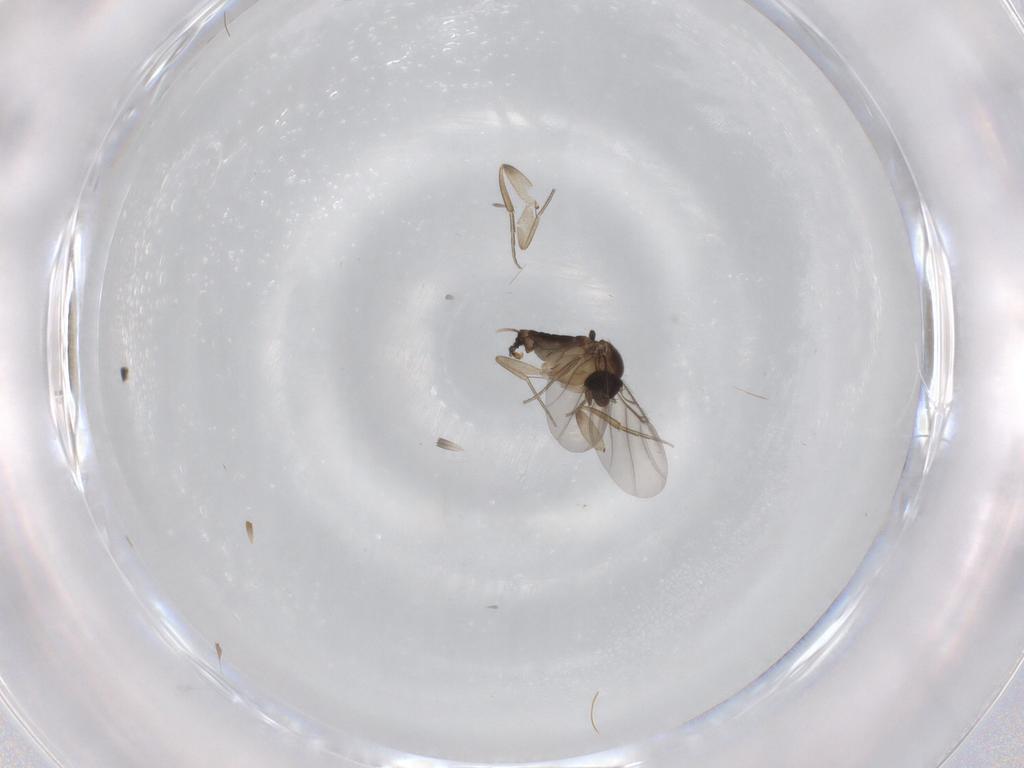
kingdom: Animalia
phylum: Arthropoda
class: Insecta
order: Diptera
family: Phoridae
